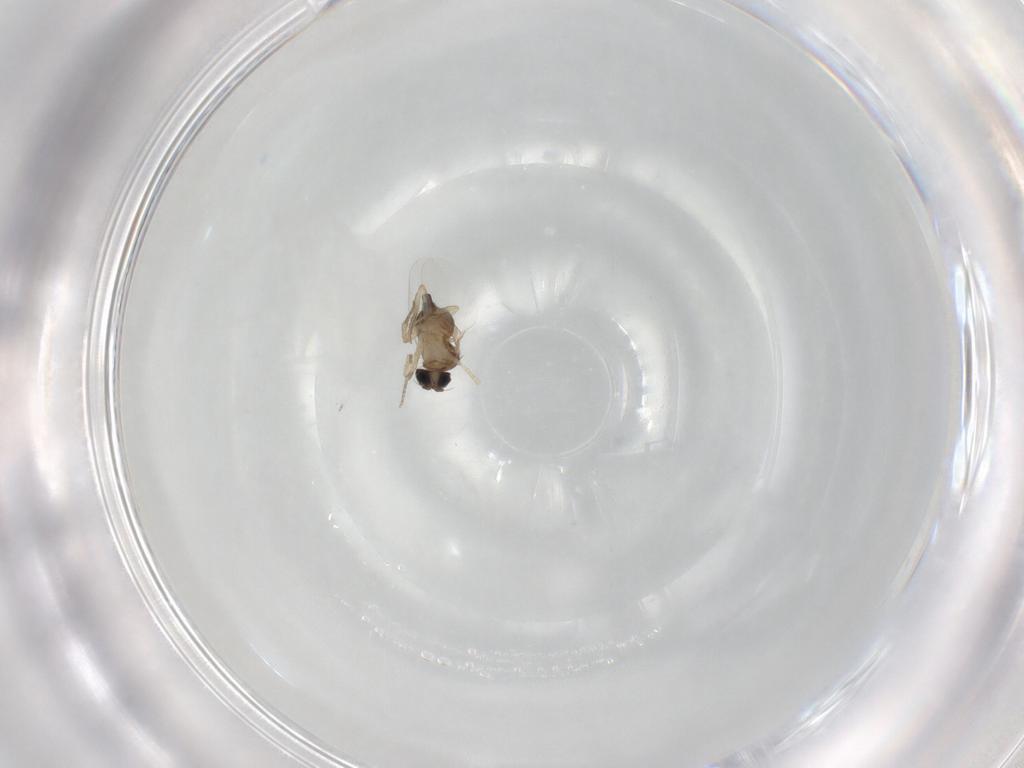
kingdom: Animalia
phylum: Arthropoda
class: Insecta
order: Diptera
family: Phoridae
